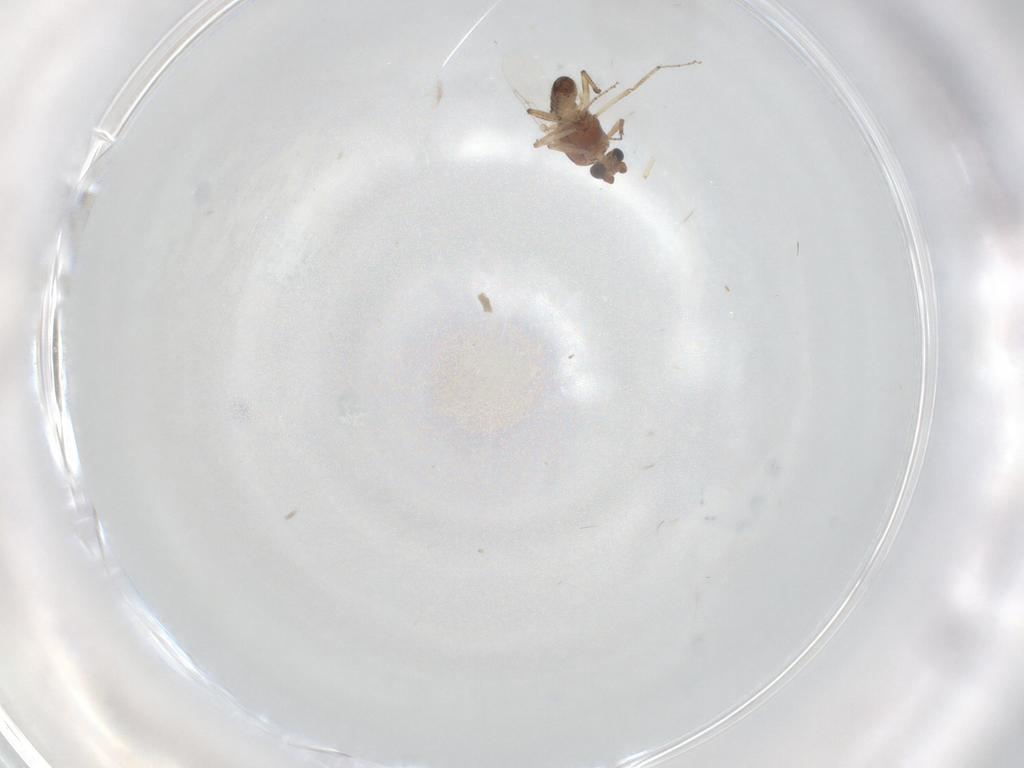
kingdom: Animalia
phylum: Arthropoda
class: Insecta
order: Diptera
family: Ceratopogonidae
